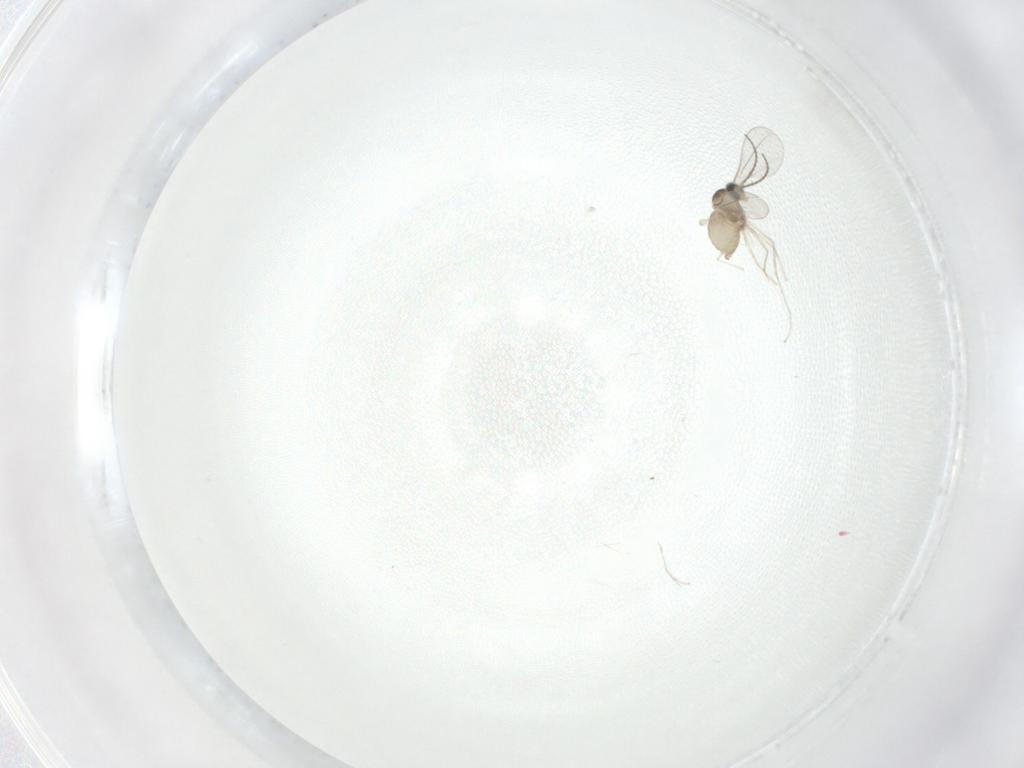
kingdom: Animalia
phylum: Arthropoda
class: Insecta
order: Diptera
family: Cecidomyiidae
